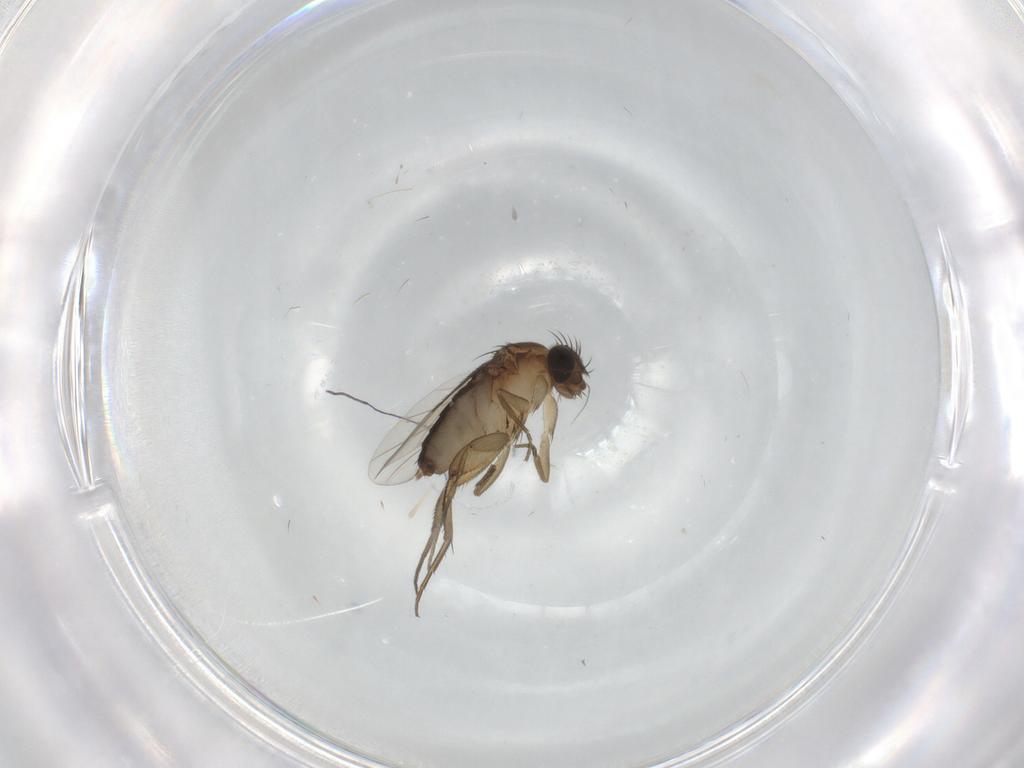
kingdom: Animalia
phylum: Arthropoda
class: Insecta
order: Diptera
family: Phoridae
